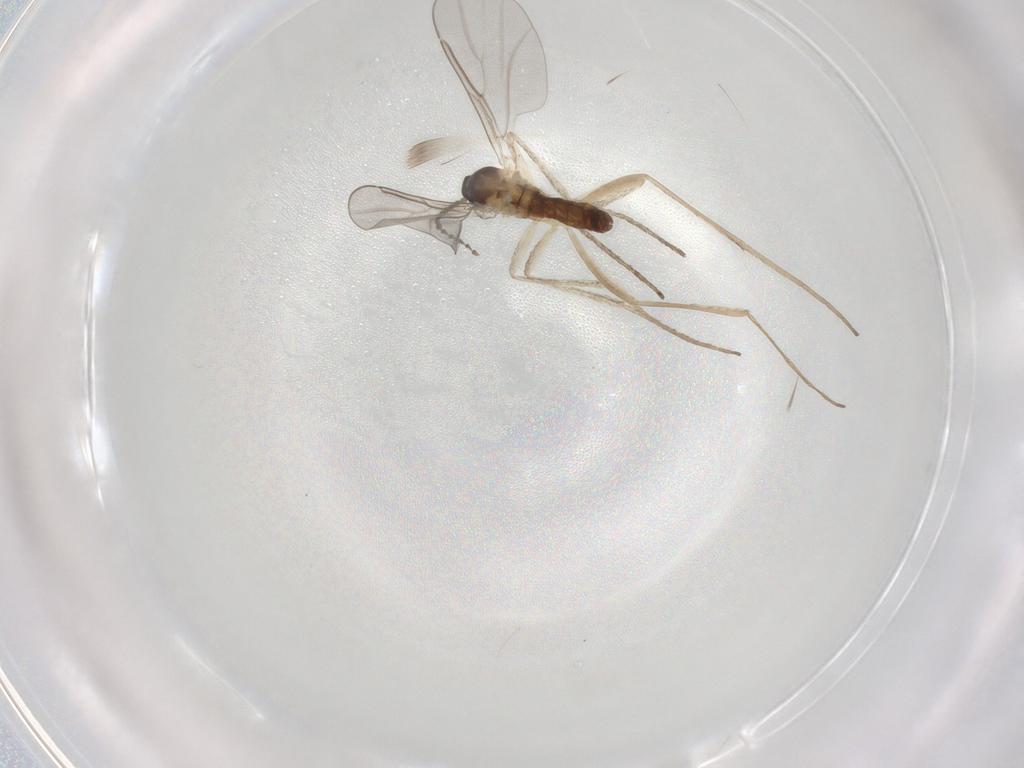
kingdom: Animalia
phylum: Arthropoda
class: Insecta
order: Diptera
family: Cecidomyiidae
